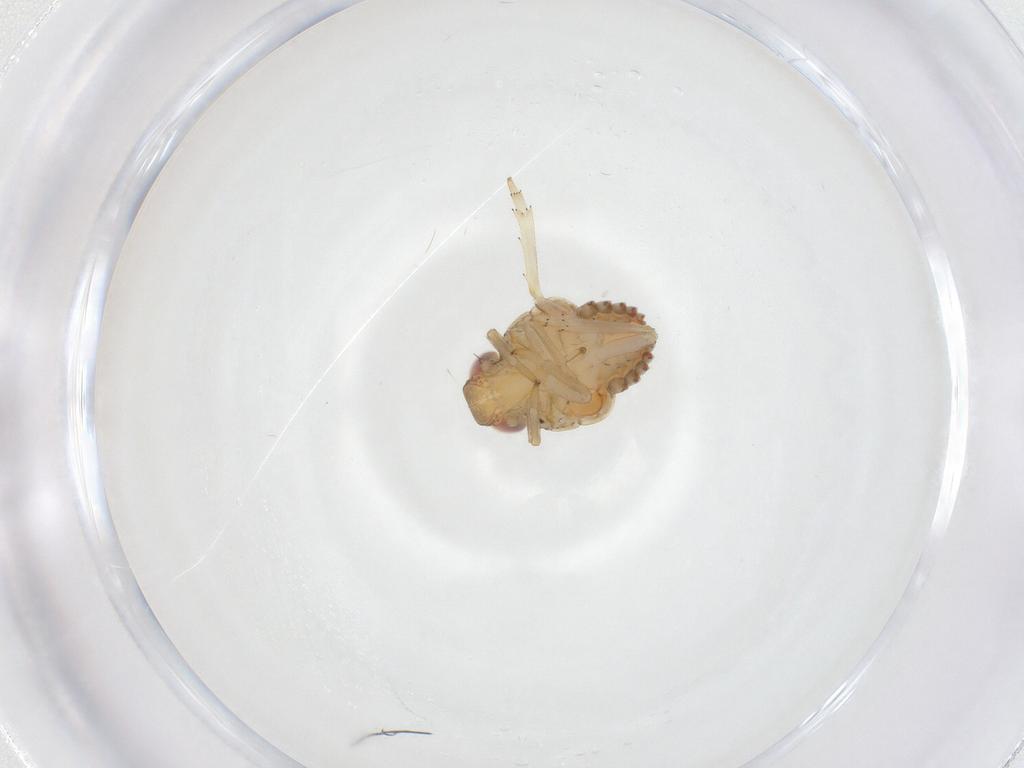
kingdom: Animalia
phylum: Arthropoda
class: Insecta
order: Hemiptera
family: Issidae
